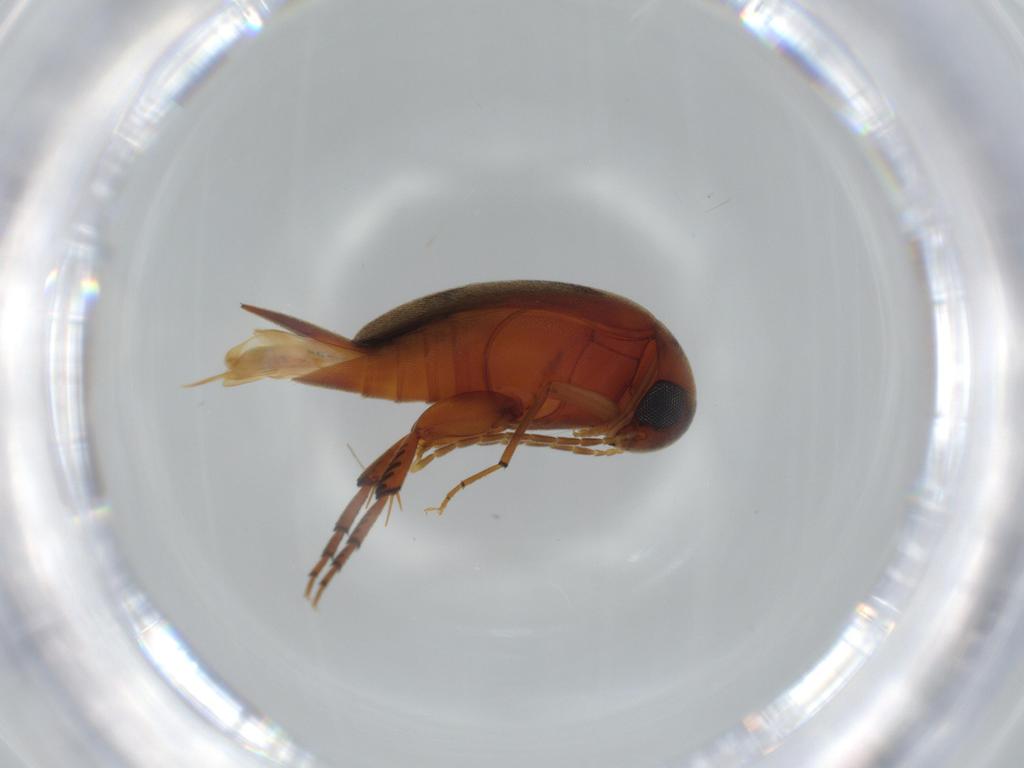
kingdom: Animalia
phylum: Arthropoda
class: Insecta
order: Coleoptera
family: Anthribidae
